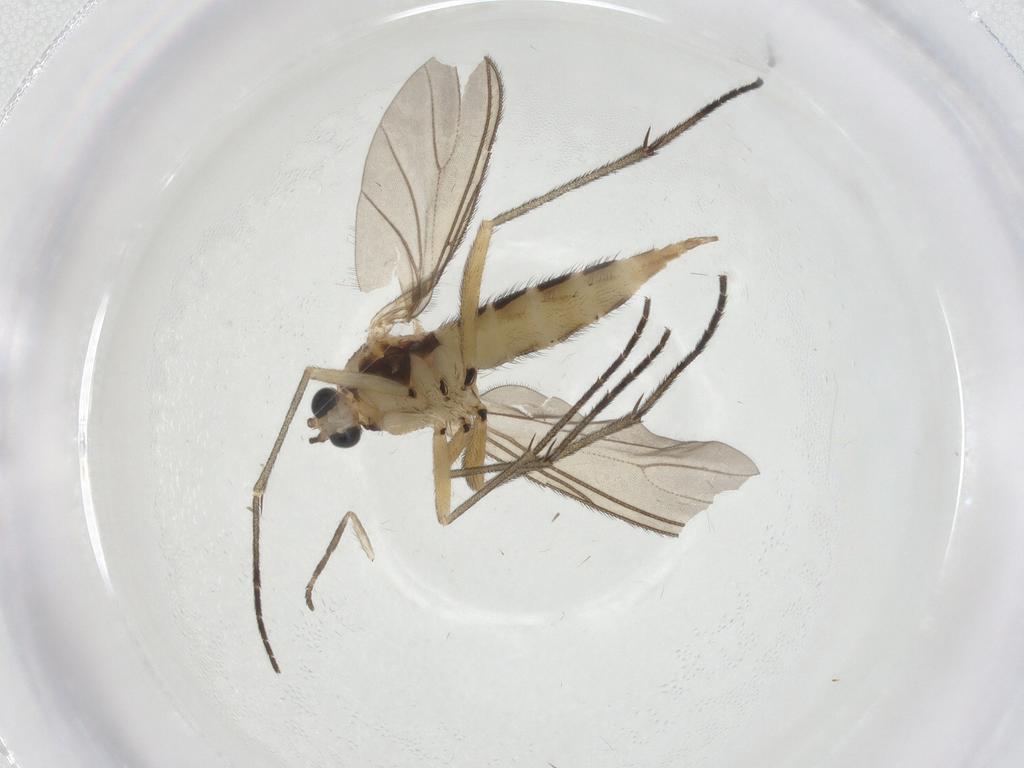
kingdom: Animalia
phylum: Arthropoda
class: Insecta
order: Diptera
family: Sciaridae
